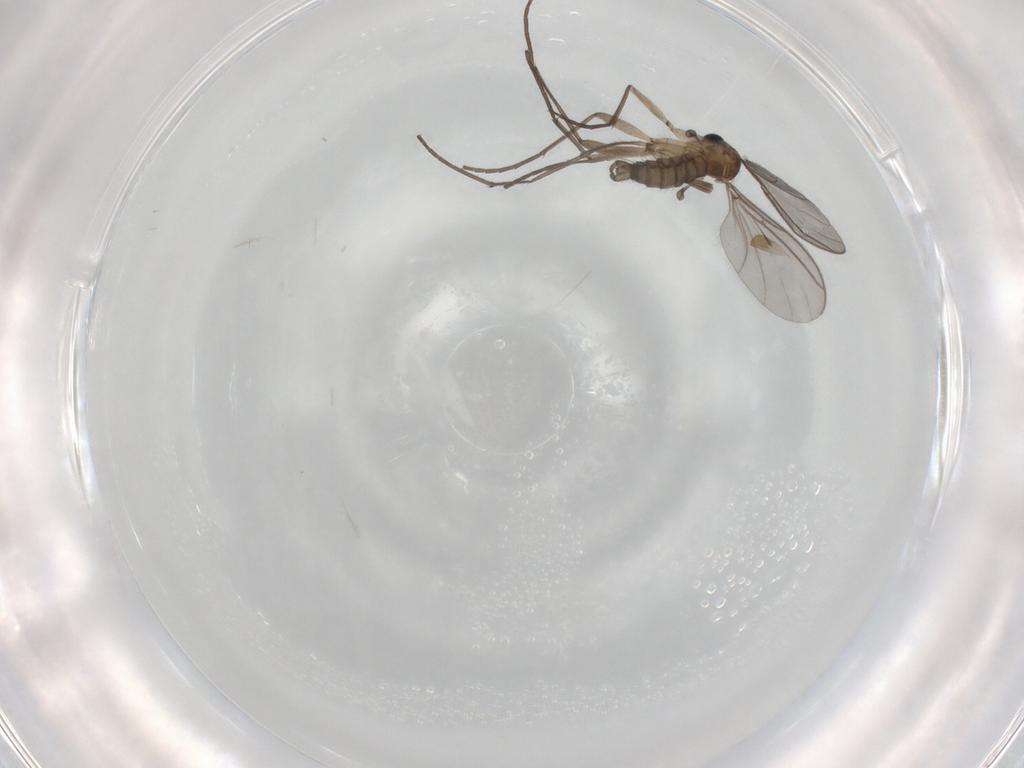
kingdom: Animalia
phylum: Arthropoda
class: Insecta
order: Diptera
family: Chironomidae
